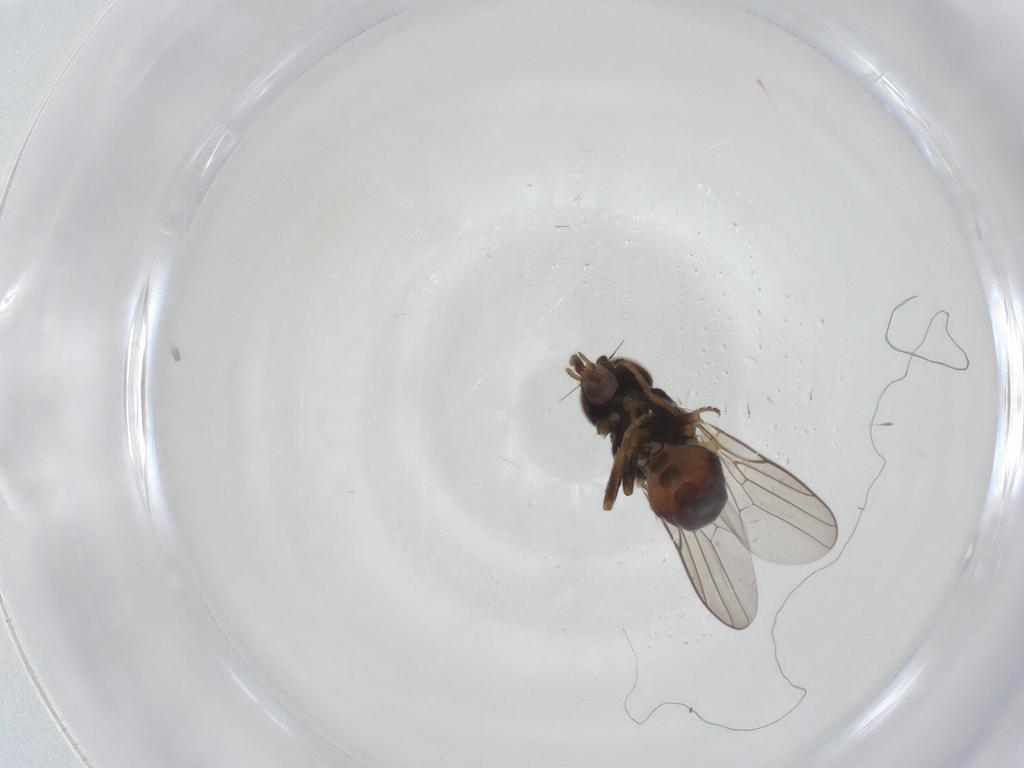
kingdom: Animalia
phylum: Arthropoda
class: Insecta
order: Diptera
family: Chloropidae
